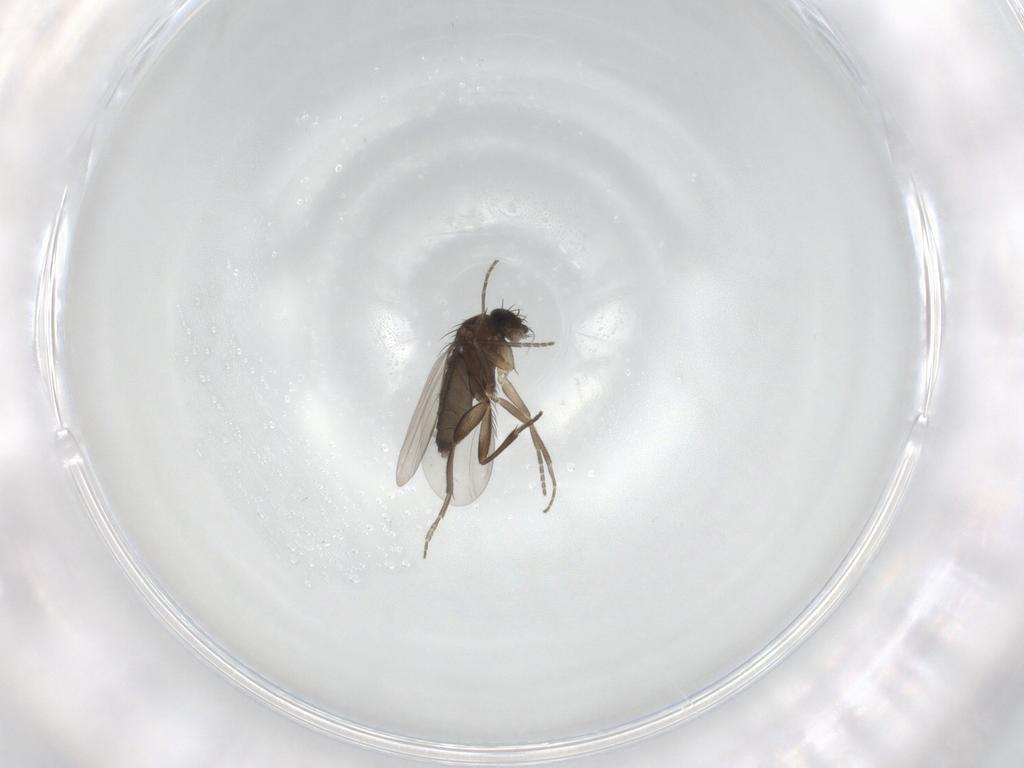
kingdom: Animalia
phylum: Arthropoda
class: Insecta
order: Diptera
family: Phoridae
